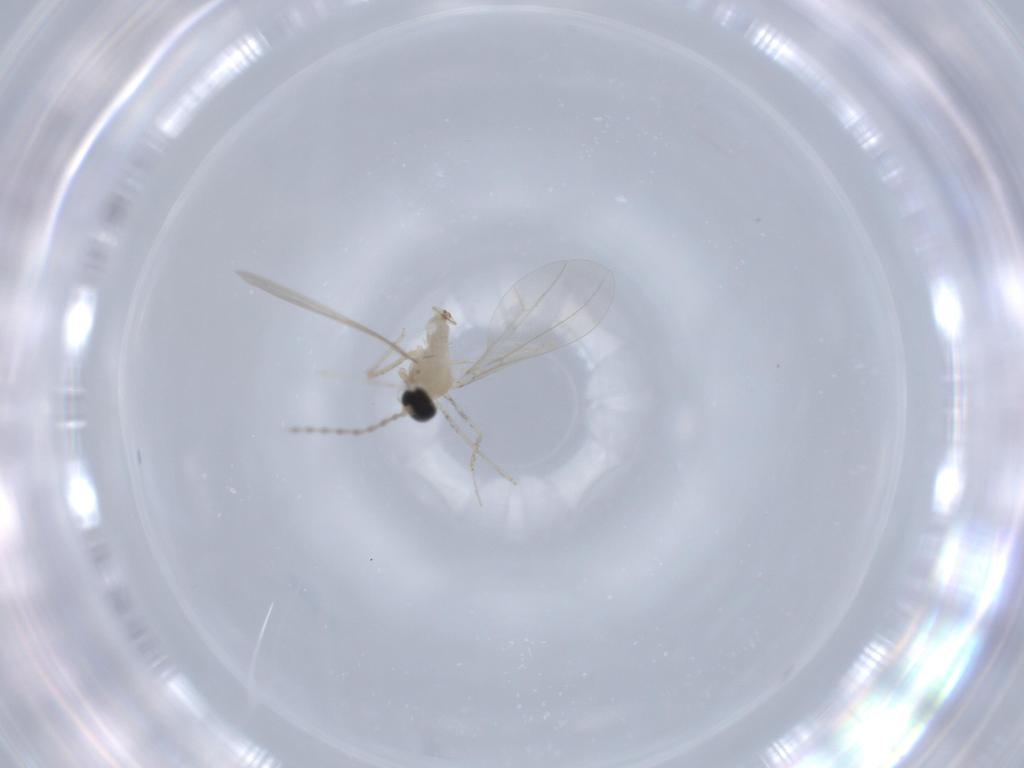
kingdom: Animalia
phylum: Arthropoda
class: Insecta
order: Diptera
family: Cecidomyiidae
